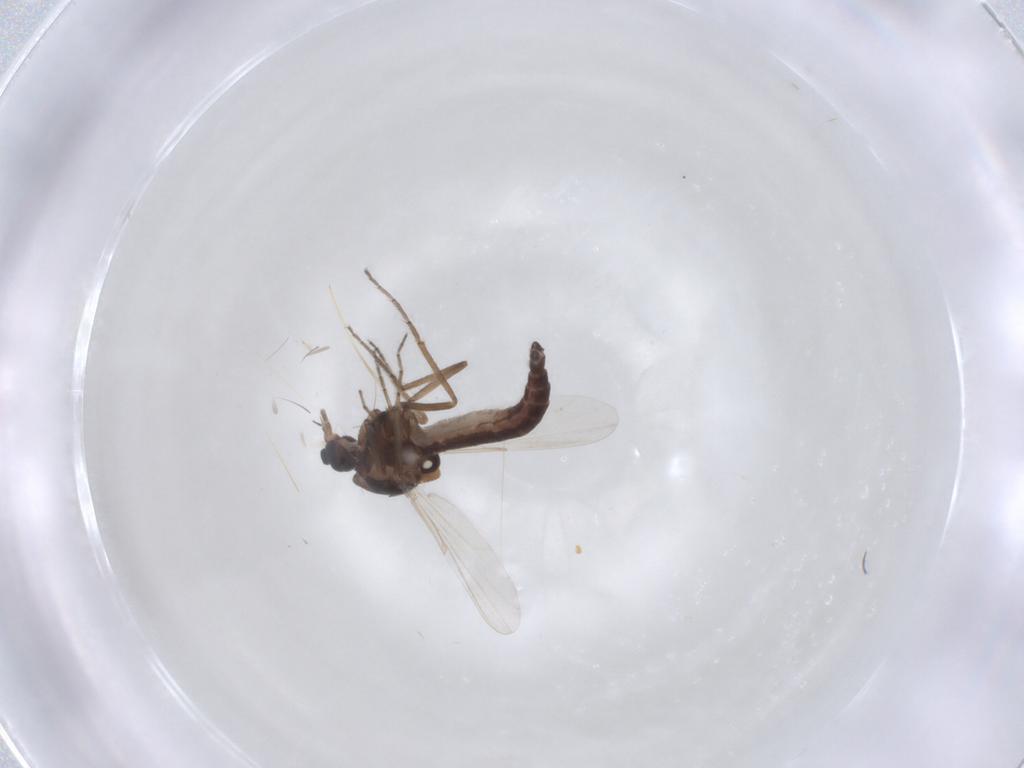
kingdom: Animalia
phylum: Arthropoda
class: Insecta
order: Diptera
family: Ceratopogonidae
